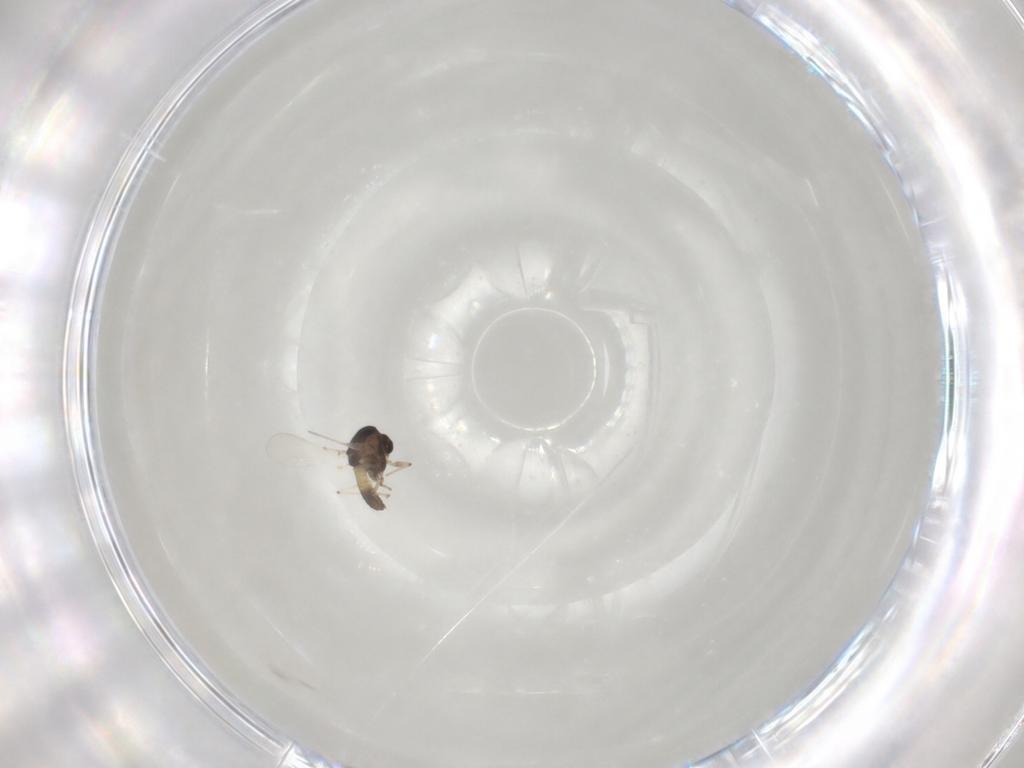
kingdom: Animalia
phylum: Arthropoda
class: Insecta
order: Diptera
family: Chironomidae
